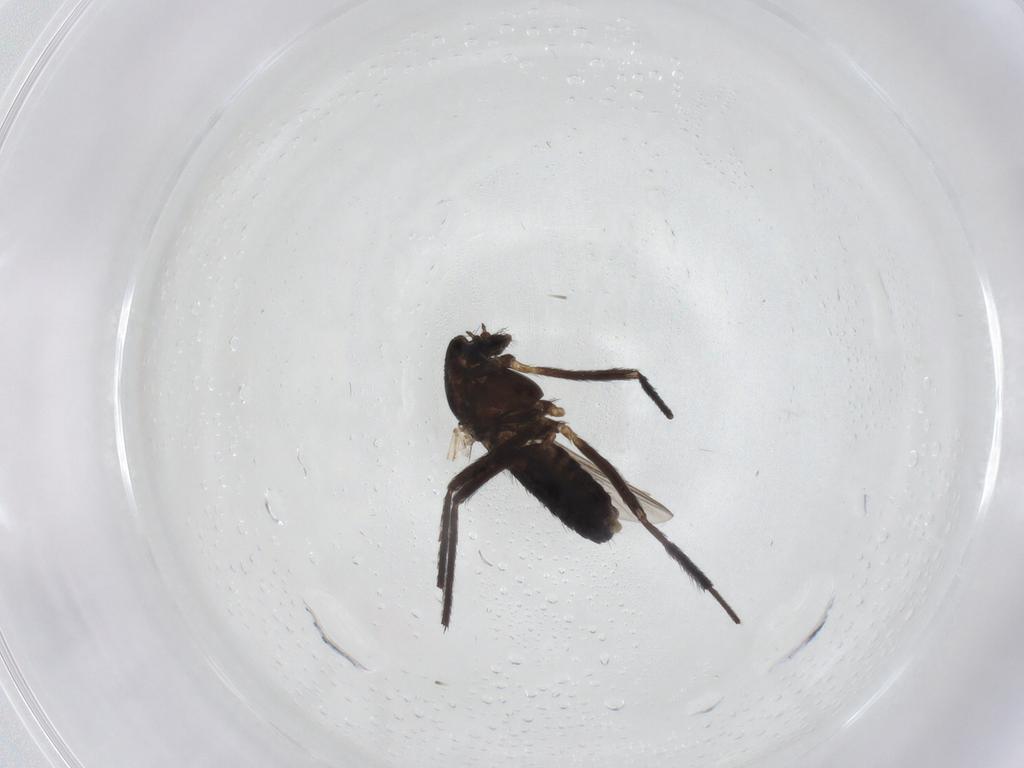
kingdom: Animalia
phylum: Arthropoda
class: Insecta
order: Diptera
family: Chironomidae
